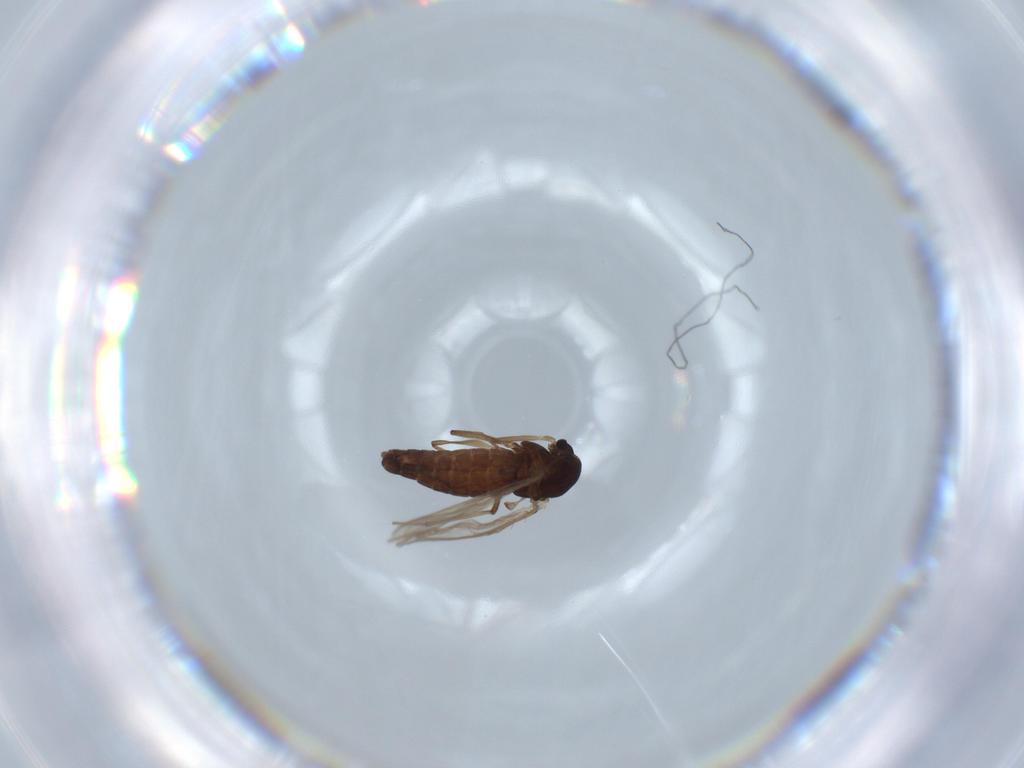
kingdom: Animalia
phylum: Arthropoda
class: Insecta
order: Diptera
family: Chironomidae
